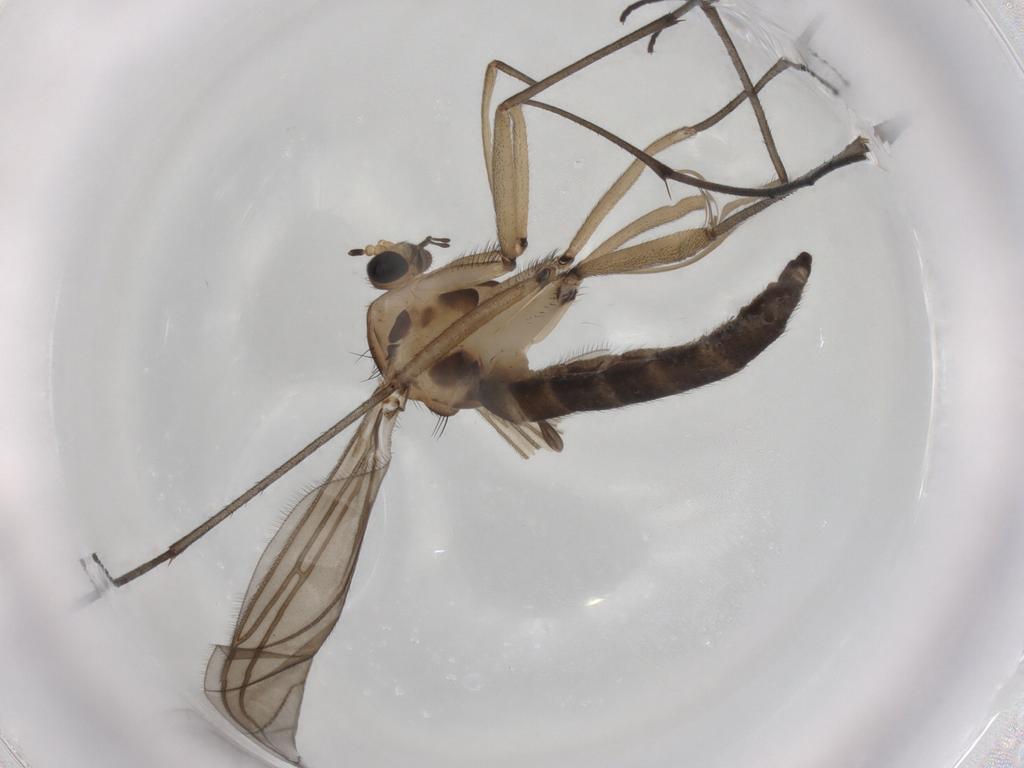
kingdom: Animalia
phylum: Arthropoda
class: Insecta
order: Diptera
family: Sciaridae
